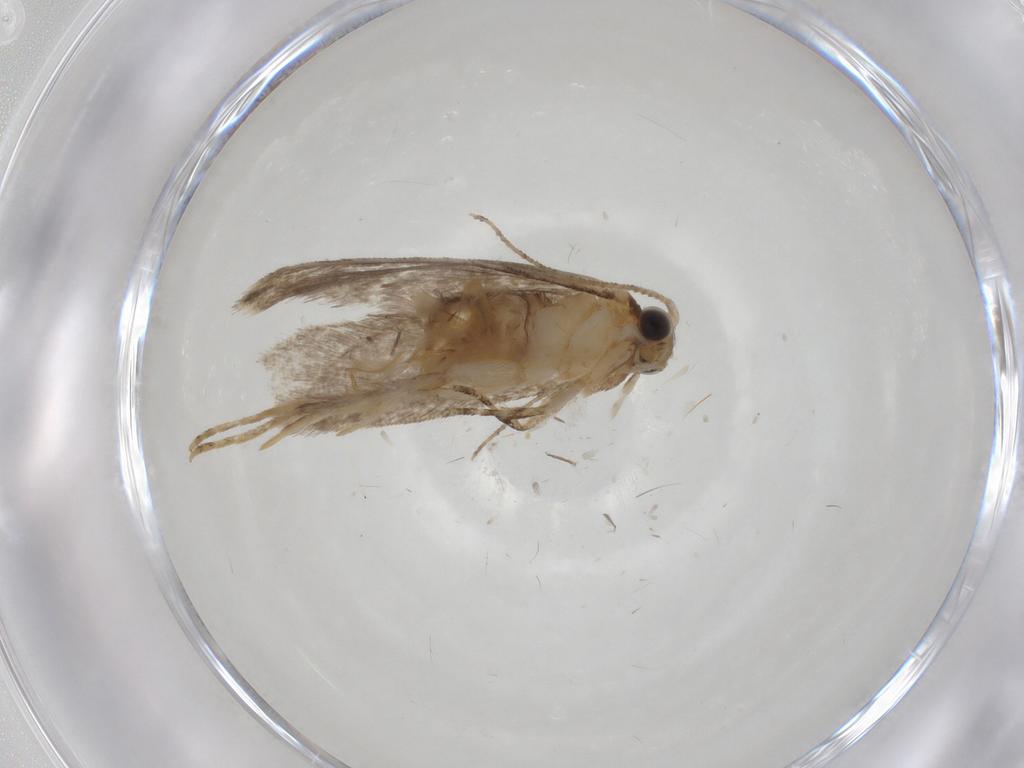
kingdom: Animalia
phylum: Arthropoda
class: Insecta
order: Lepidoptera
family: Tineidae
